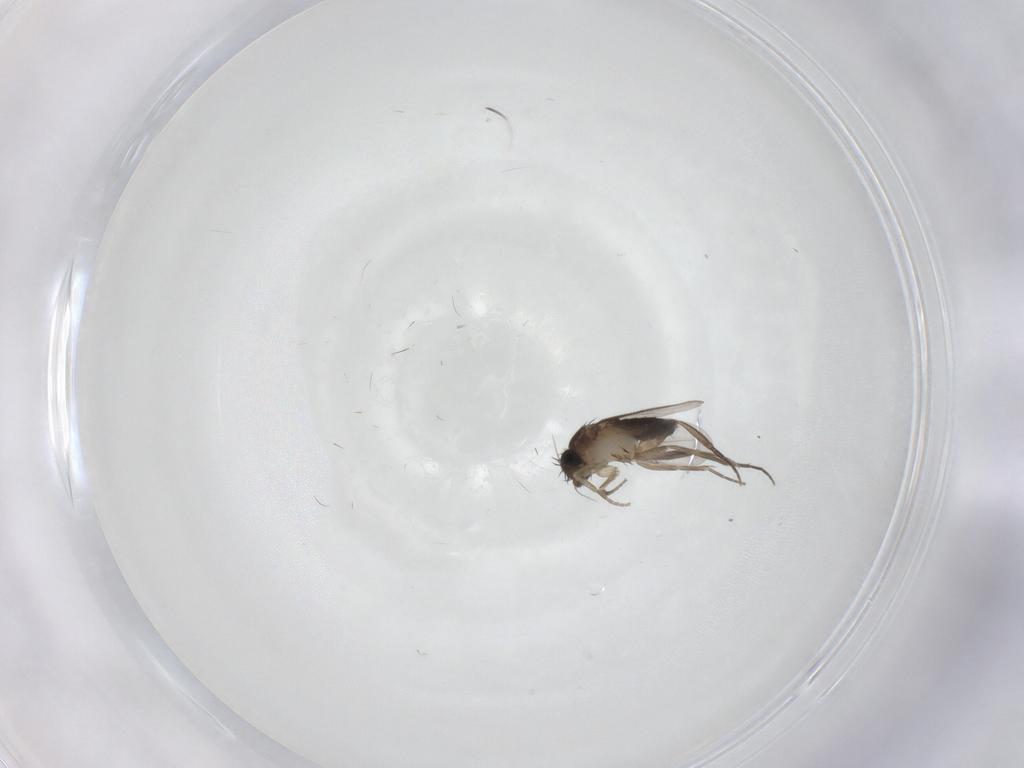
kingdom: Animalia
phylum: Arthropoda
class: Insecta
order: Diptera
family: Phoridae
